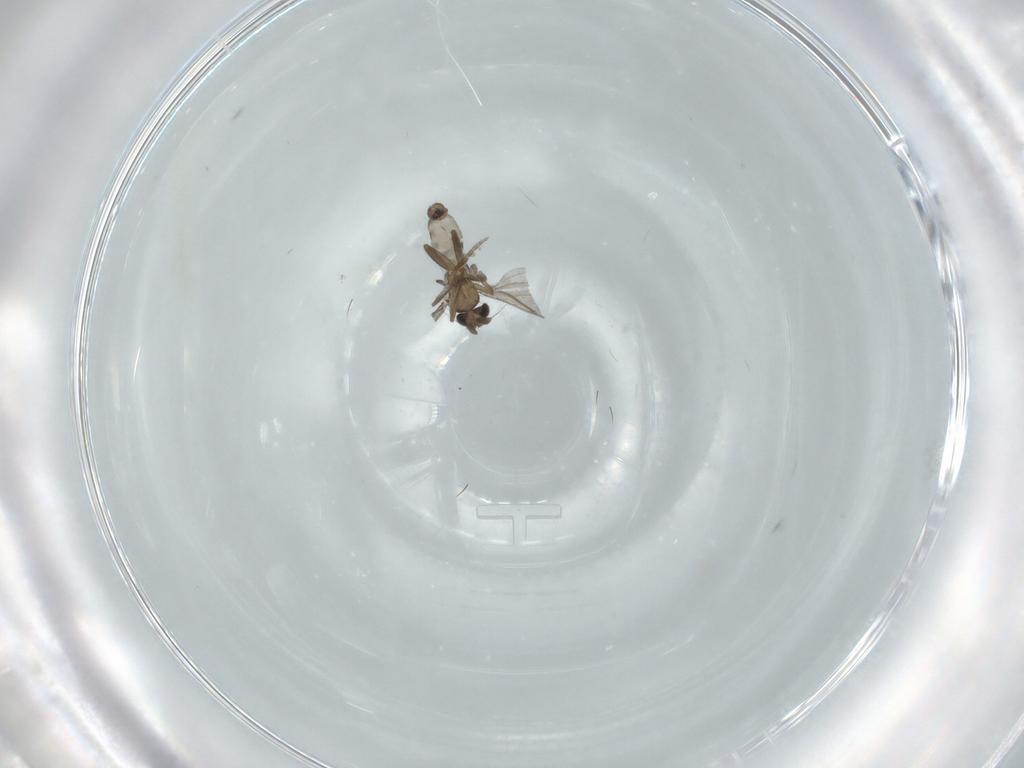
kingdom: Animalia
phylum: Arthropoda
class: Insecta
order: Diptera
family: Chironomidae
